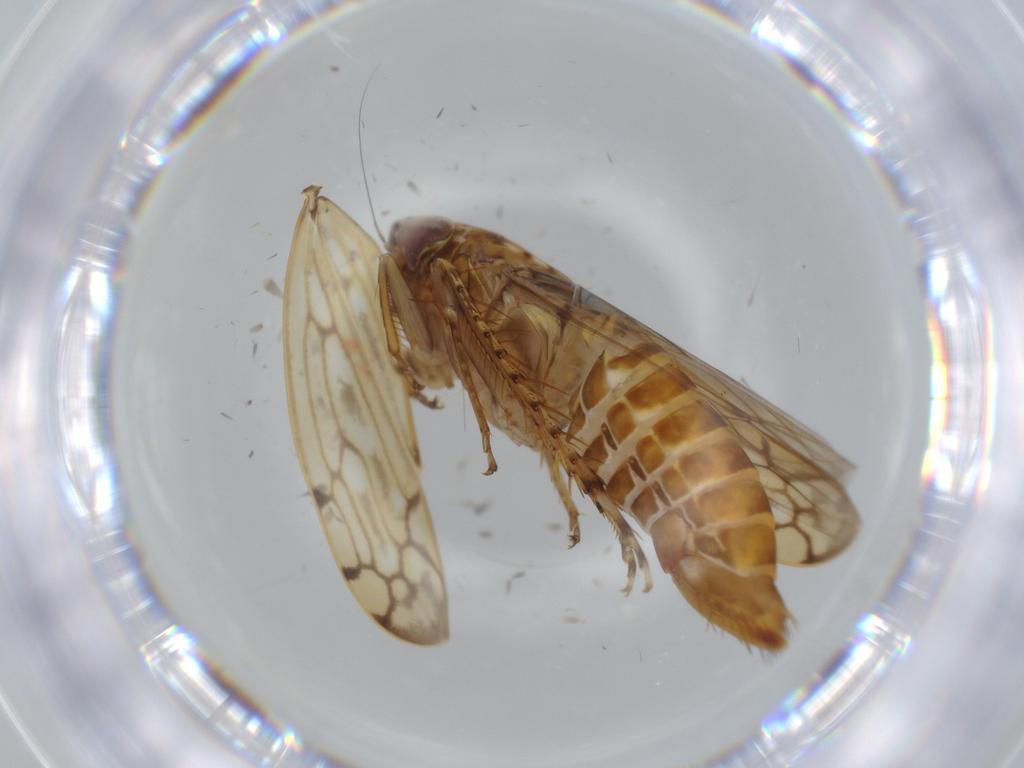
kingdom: Animalia
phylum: Arthropoda
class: Insecta
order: Hemiptera
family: Cicadellidae
